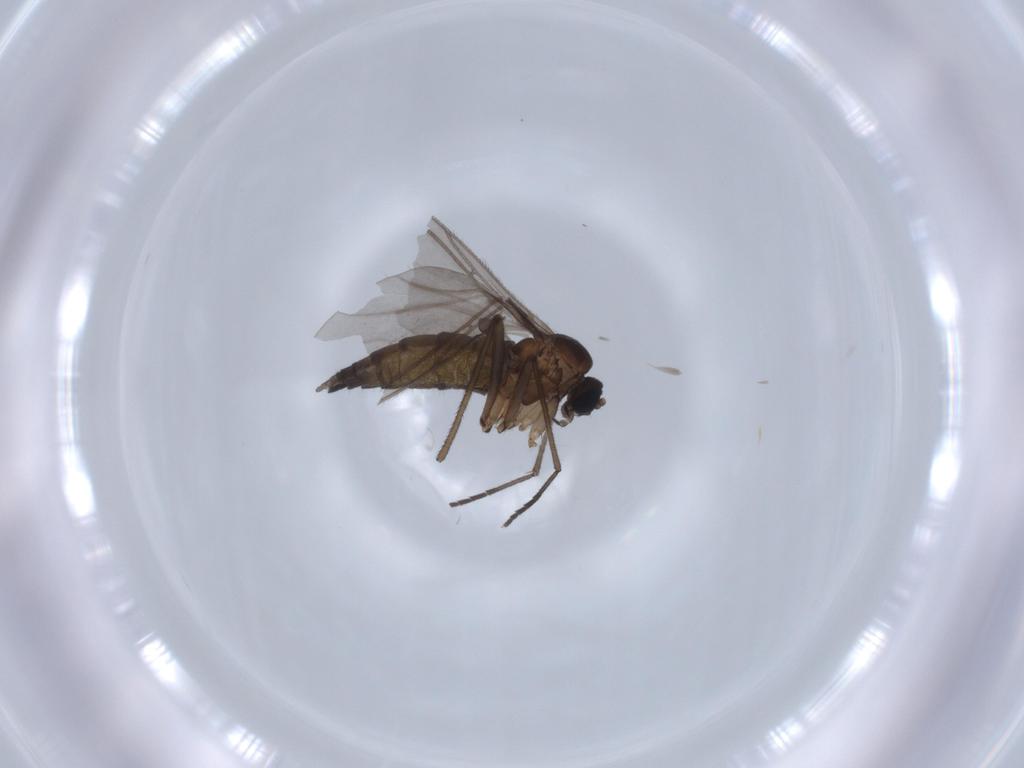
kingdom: Animalia
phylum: Arthropoda
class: Insecta
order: Diptera
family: Sciaridae
